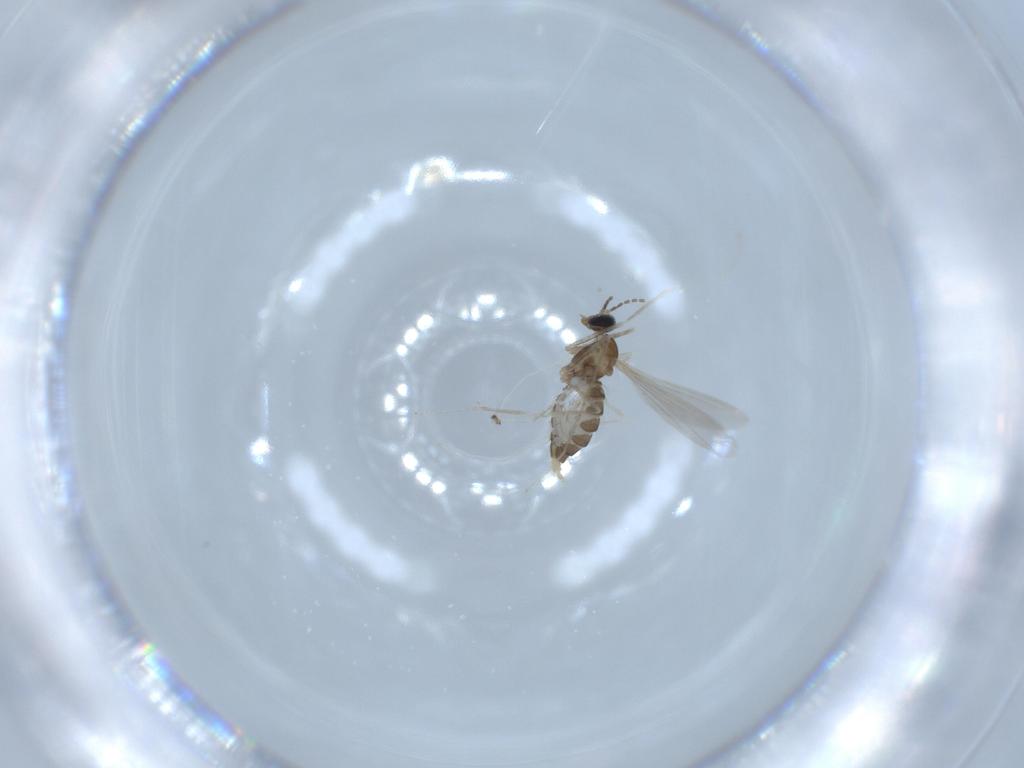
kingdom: Animalia
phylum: Arthropoda
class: Insecta
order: Diptera
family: Cecidomyiidae
